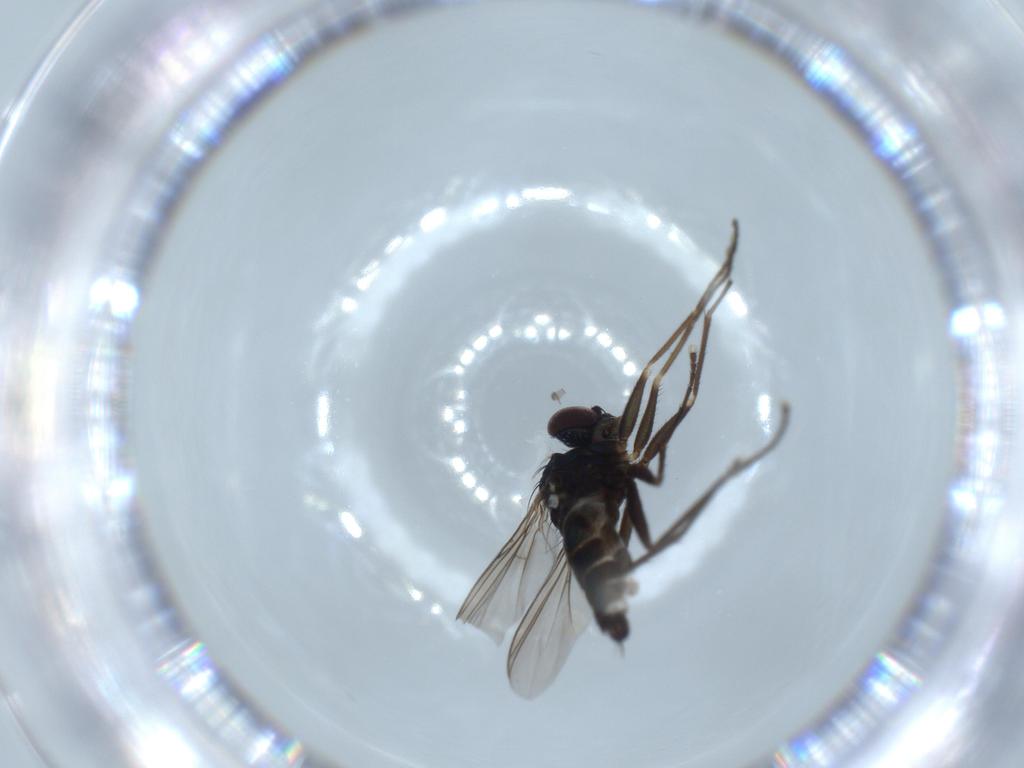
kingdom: Animalia
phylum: Arthropoda
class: Insecta
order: Diptera
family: Dolichopodidae
